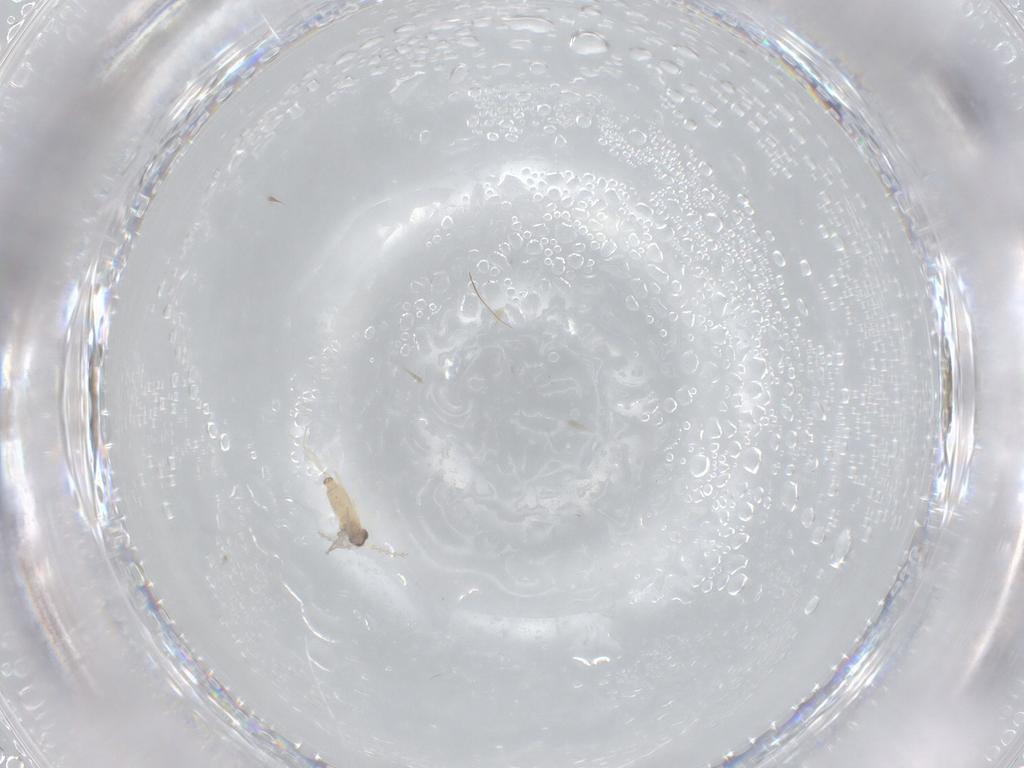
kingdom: Animalia
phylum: Arthropoda
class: Insecta
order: Diptera
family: Cecidomyiidae
